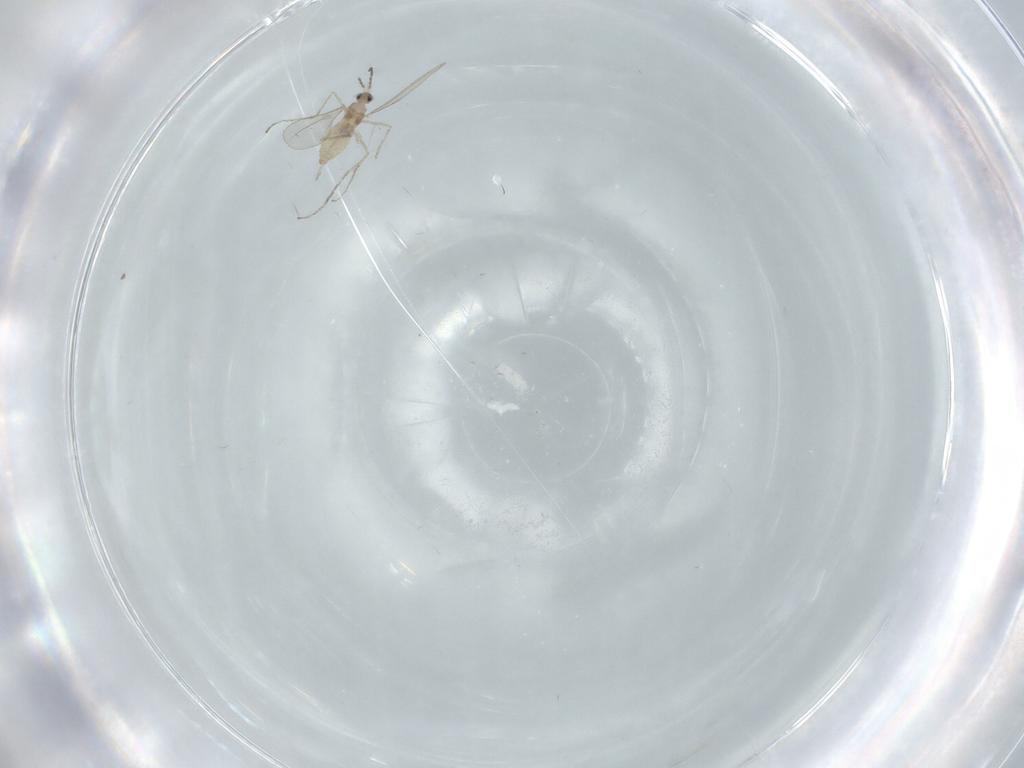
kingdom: Animalia
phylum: Arthropoda
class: Insecta
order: Diptera
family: Cecidomyiidae
